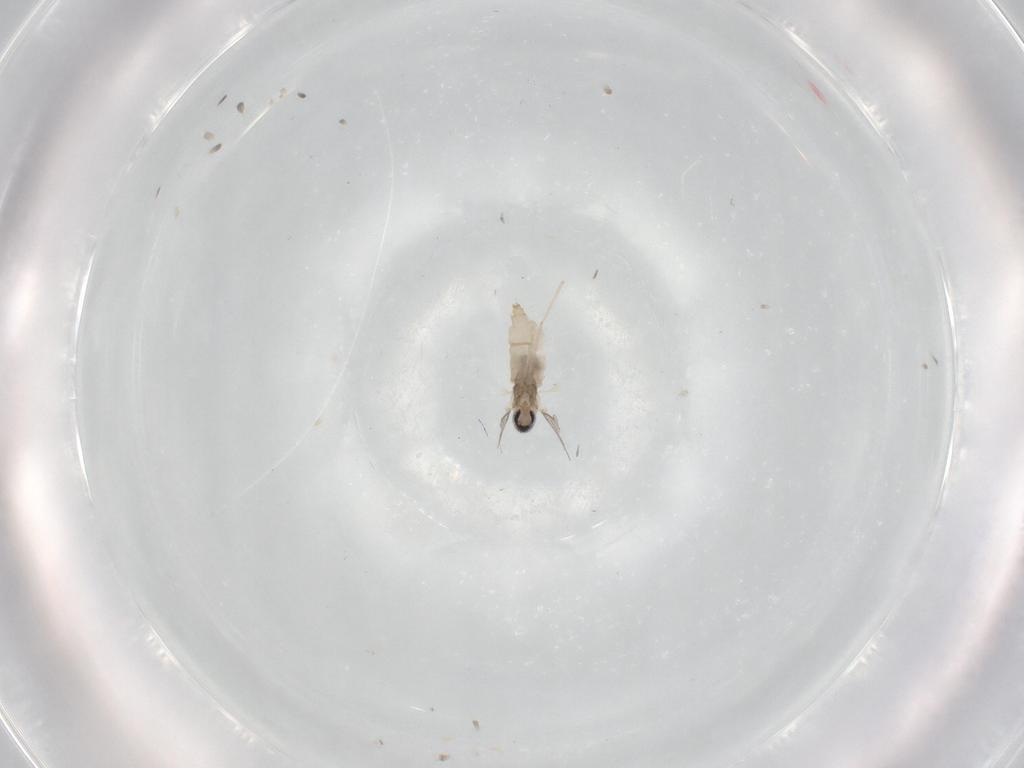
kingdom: Animalia
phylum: Arthropoda
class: Insecta
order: Diptera
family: Cecidomyiidae
